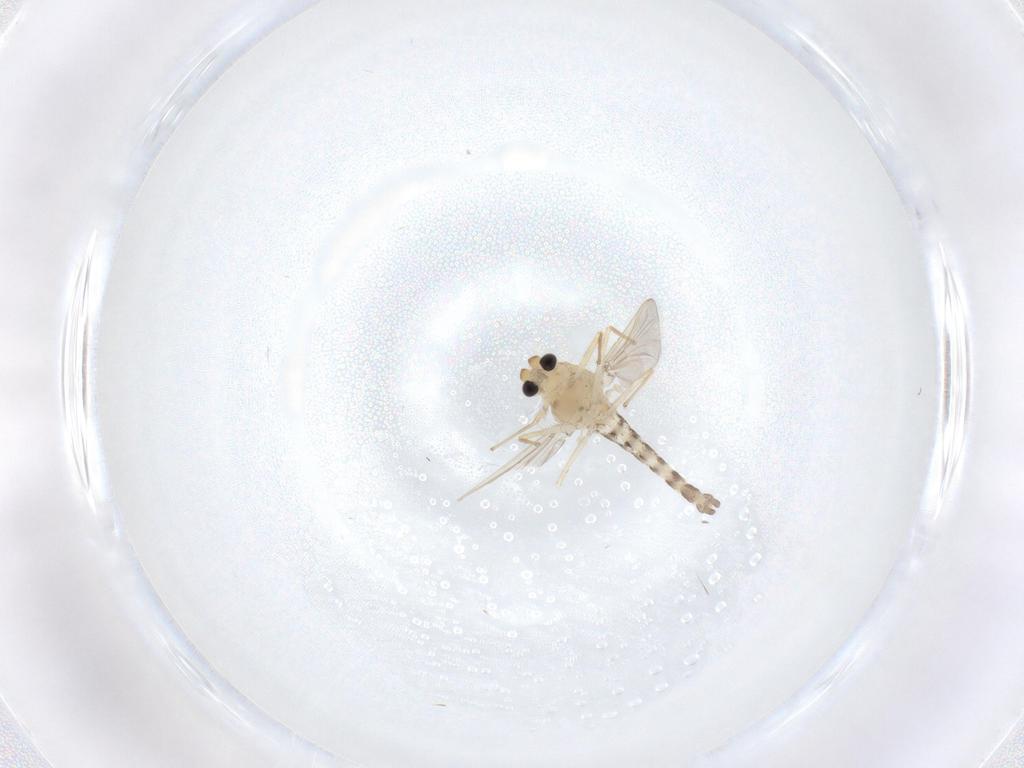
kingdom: Animalia
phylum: Arthropoda
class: Insecta
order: Diptera
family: Chironomidae
